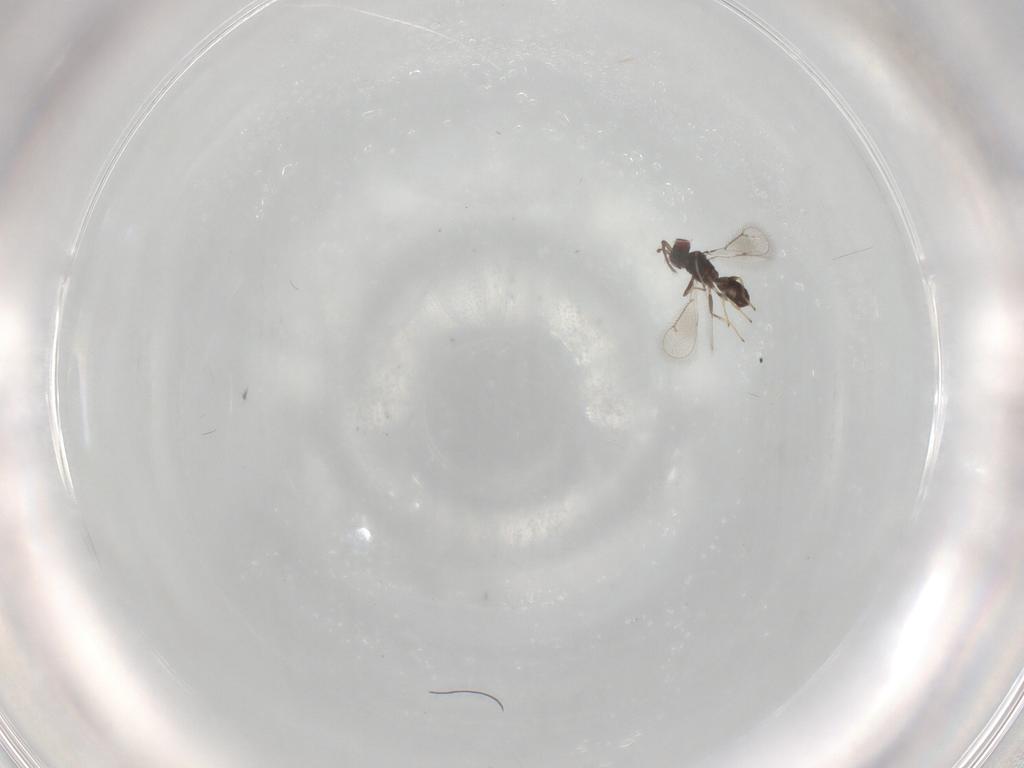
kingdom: Animalia
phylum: Arthropoda
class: Insecta
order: Hymenoptera
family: Eulophidae
